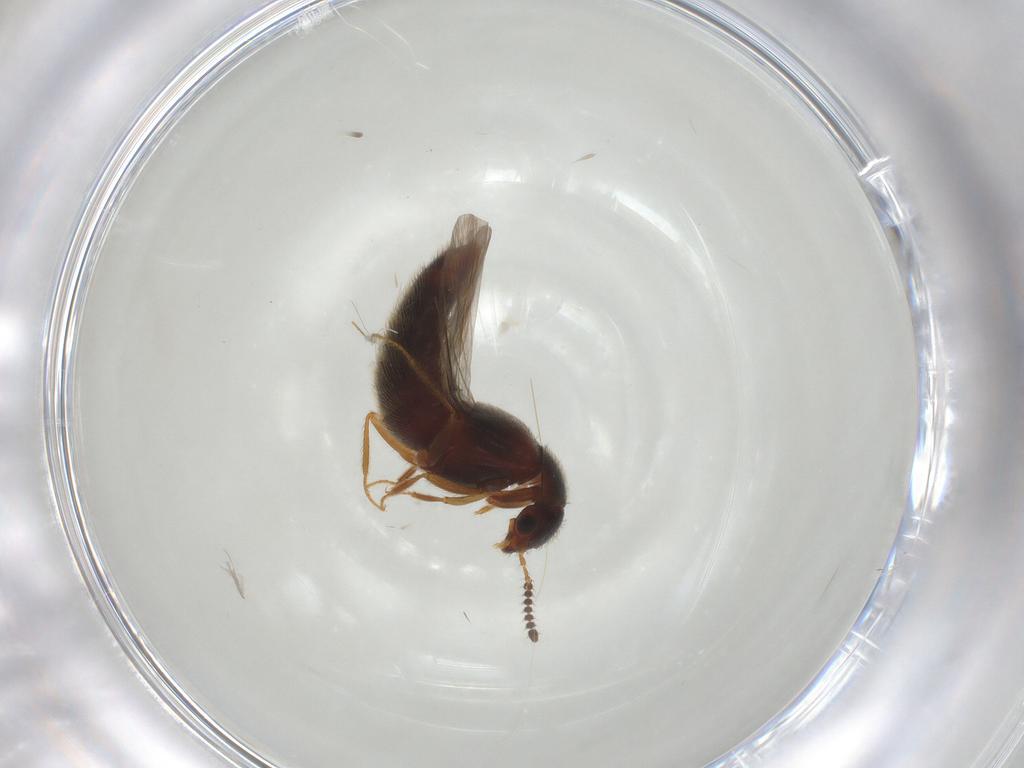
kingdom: Animalia
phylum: Arthropoda
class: Insecta
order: Coleoptera
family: Staphylinidae
